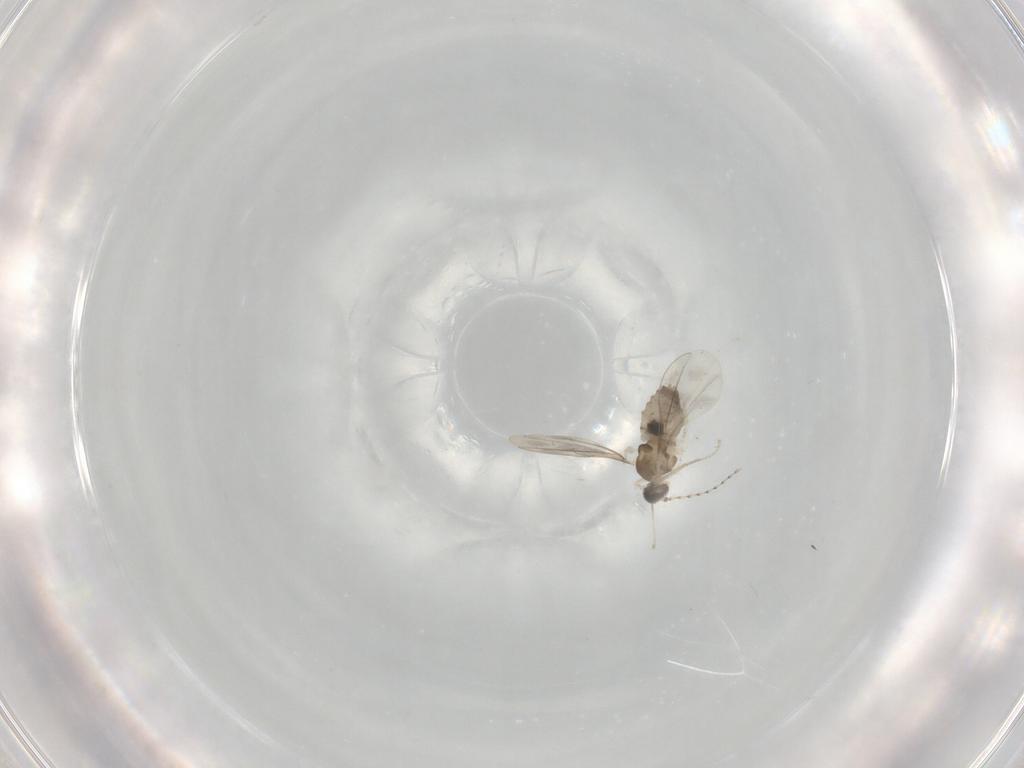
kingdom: Animalia
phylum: Arthropoda
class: Insecta
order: Diptera
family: Cecidomyiidae
